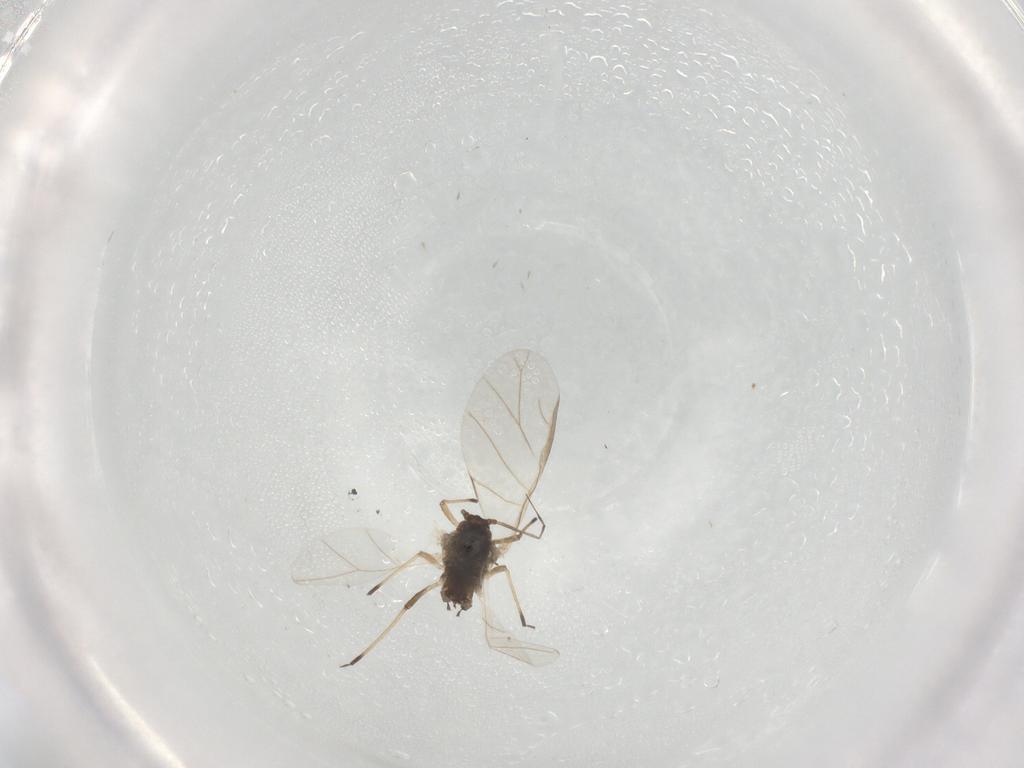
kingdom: Animalia
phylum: Arthropoda
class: Insecta
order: Hemiptera
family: Aphididae
